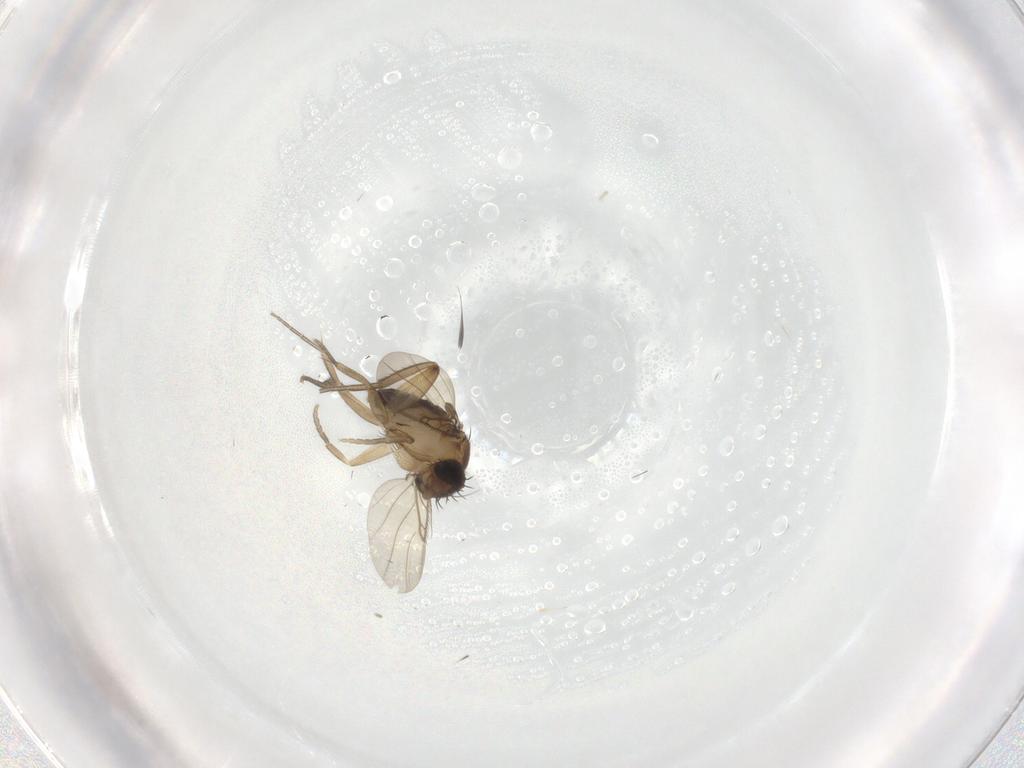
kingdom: Animalia
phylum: Arthropoda
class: Insecta
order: Diptera
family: Phoridae
